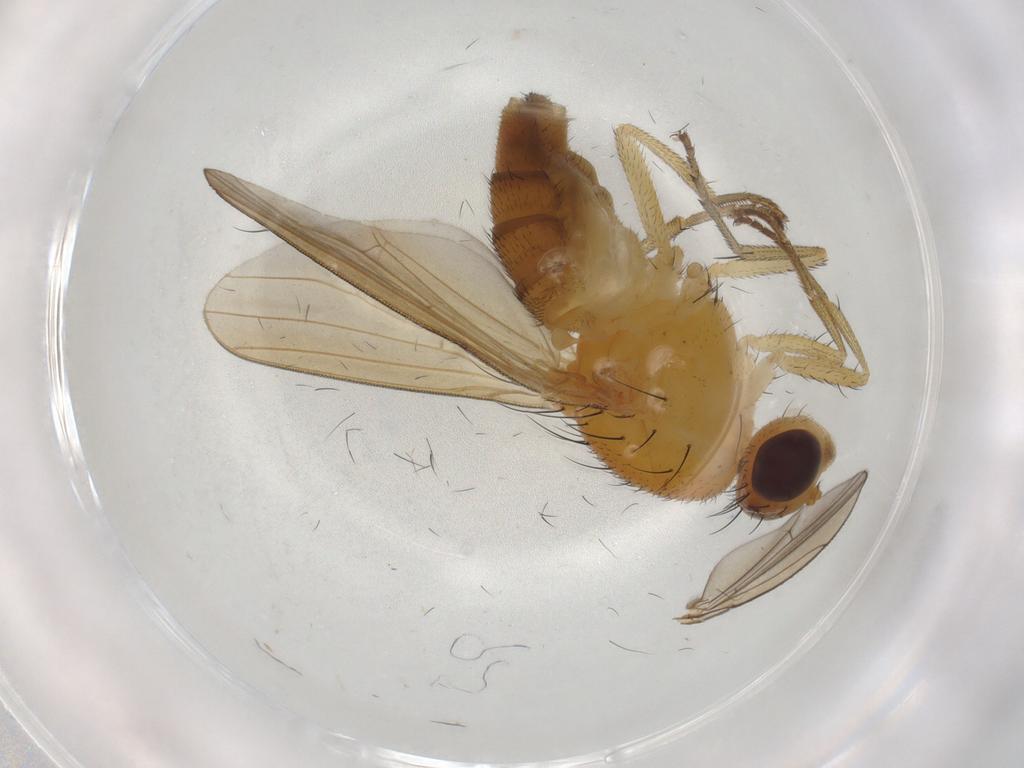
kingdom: Animalia
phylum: Arthropoda
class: Insecta
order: Diptera
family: Lauxaniidae
